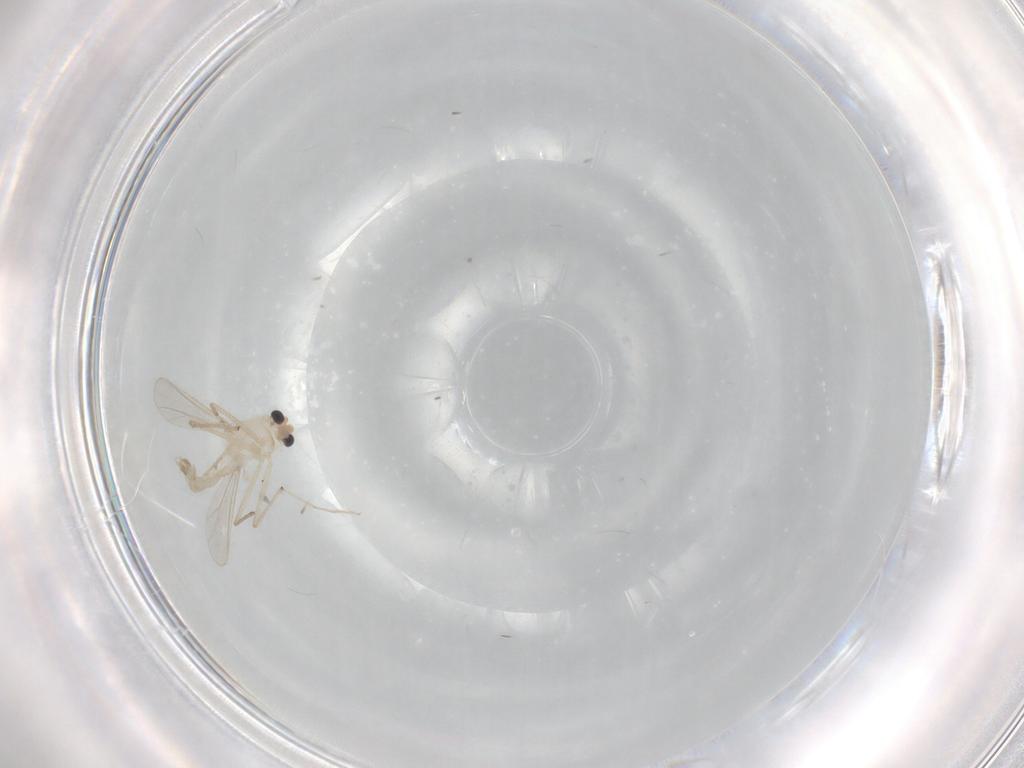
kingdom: Animalia
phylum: Arthropoda
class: Insecta
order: Diptera
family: Chironomidae
